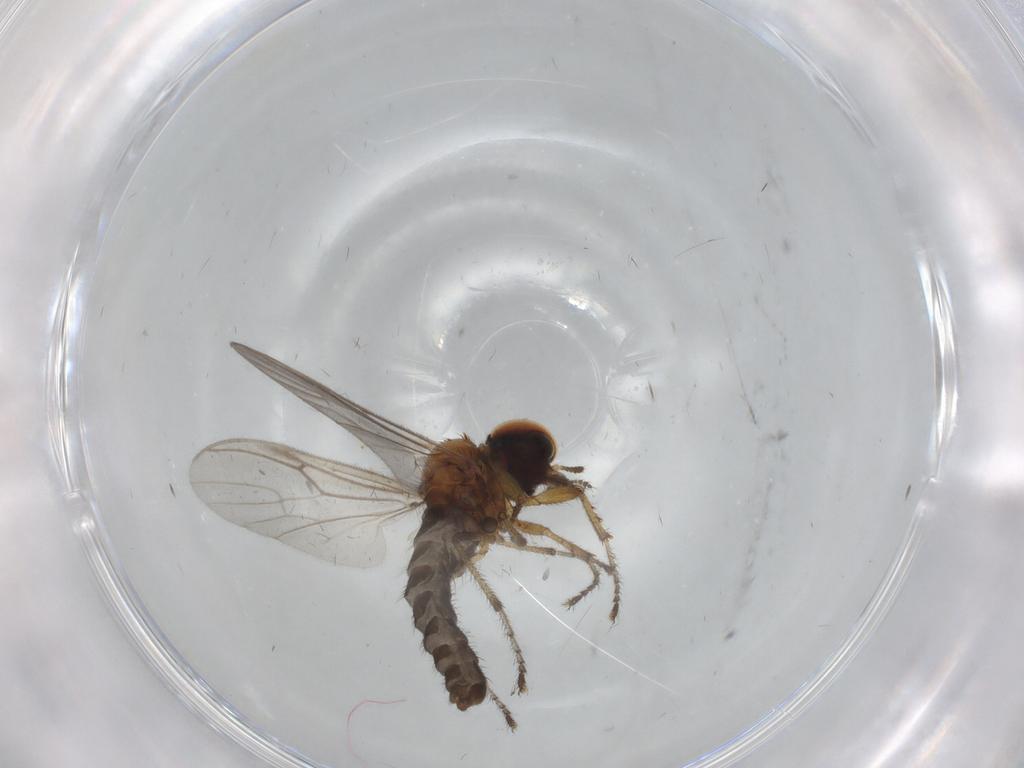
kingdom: Animalia
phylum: Arthropoda
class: Insecta
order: Diptera
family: Bibionidae
